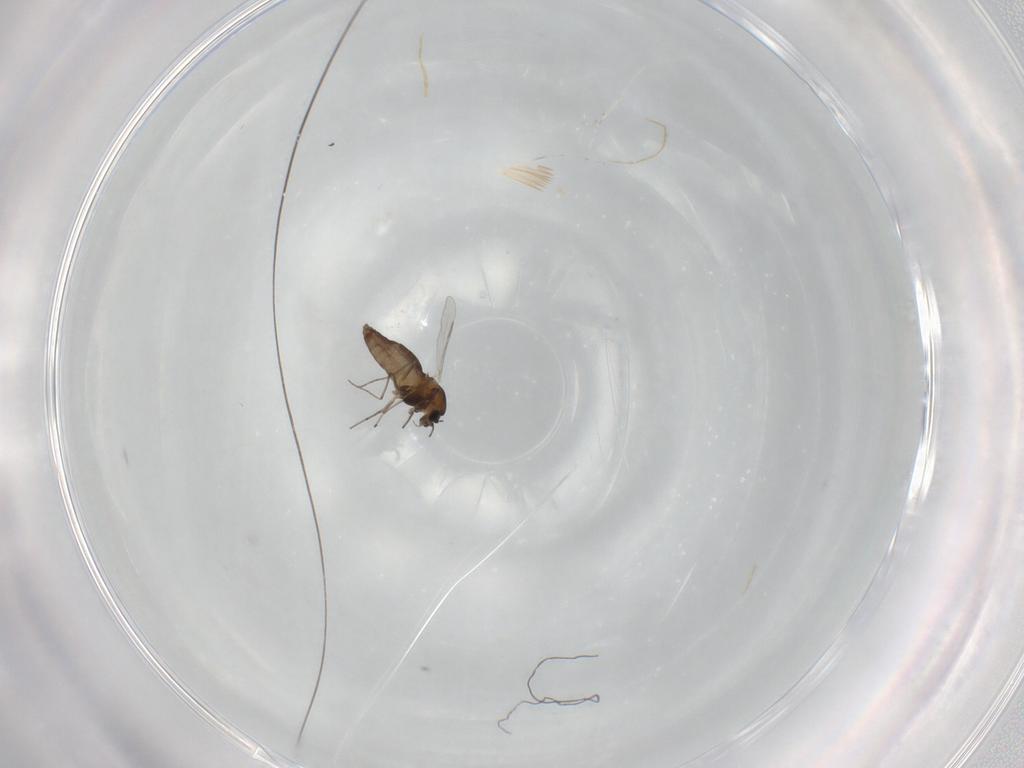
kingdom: Animalia
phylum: Arthropoda
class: Insecta
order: Diptera
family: Chironomidae
